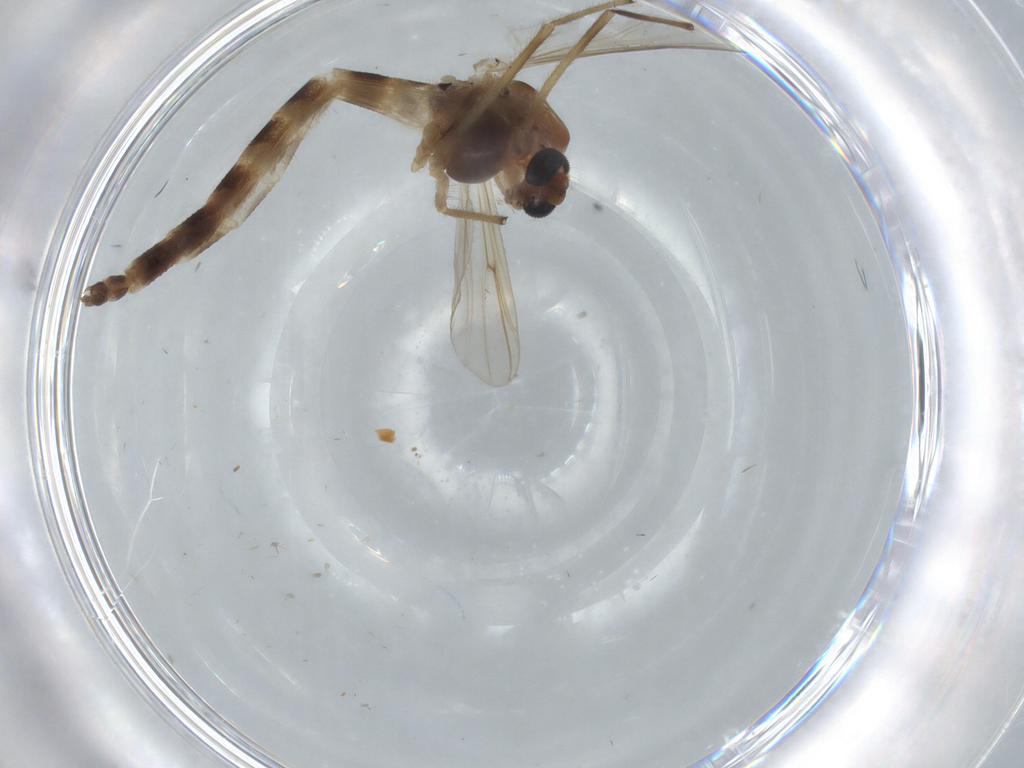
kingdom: Animalia
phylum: Arthropoda
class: Insecta
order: Diptera
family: Chironomidae
